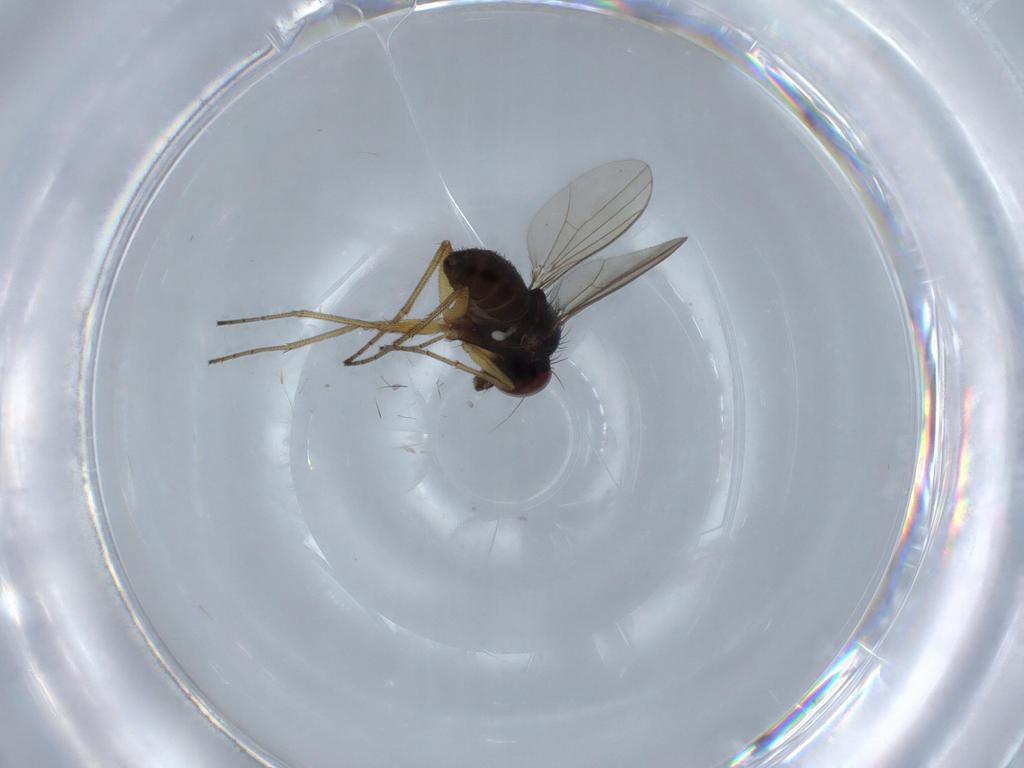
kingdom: Animalia
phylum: Arthropoda
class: Insecta
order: Diptera
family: Dolichopodidae
